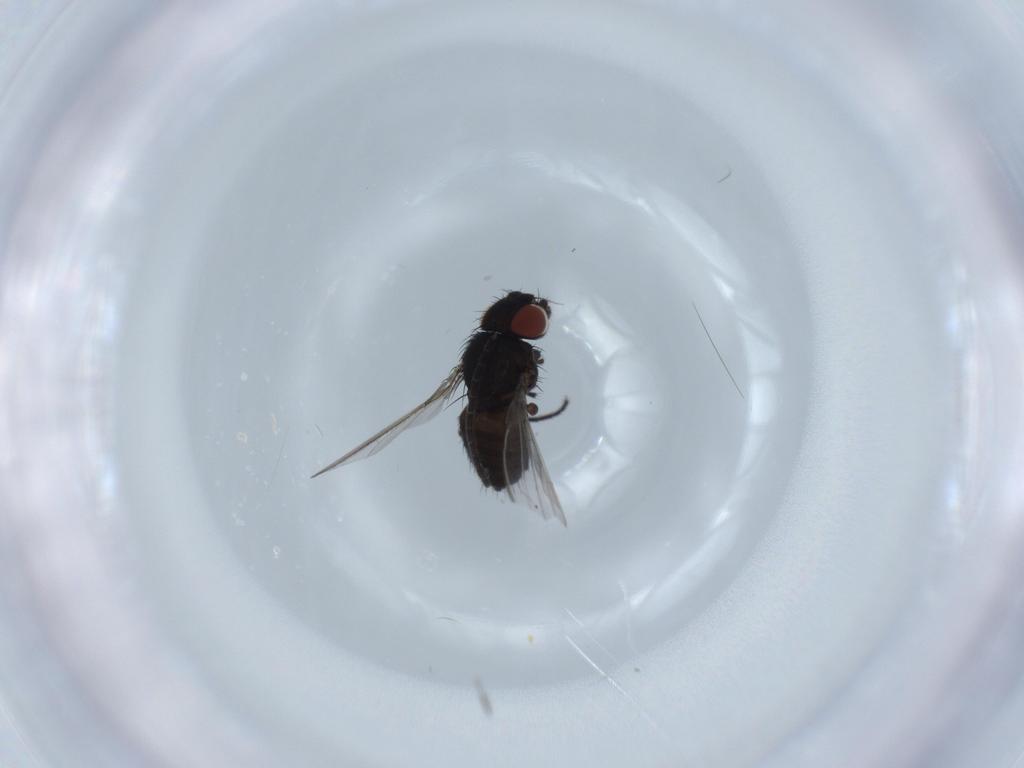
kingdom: Animalia
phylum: Arthropoda
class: Insecta
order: Diptera
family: Milichiidae
